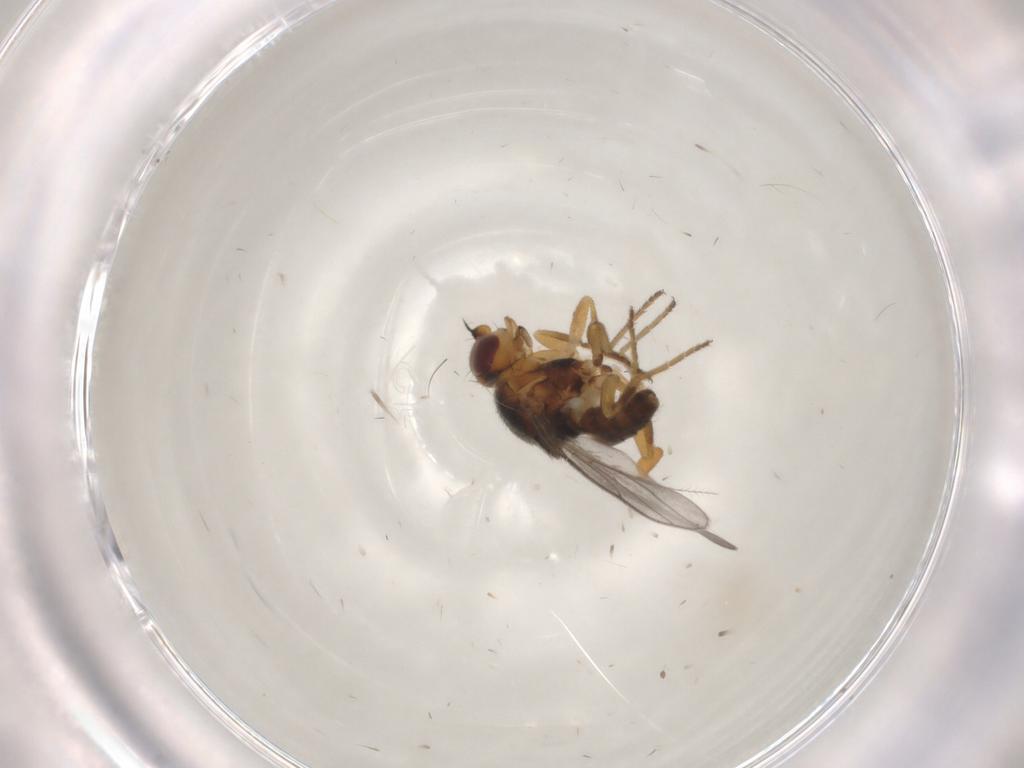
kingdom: Animalia
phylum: Arthropoda
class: Insecta
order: Diptera
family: Chloropidae
